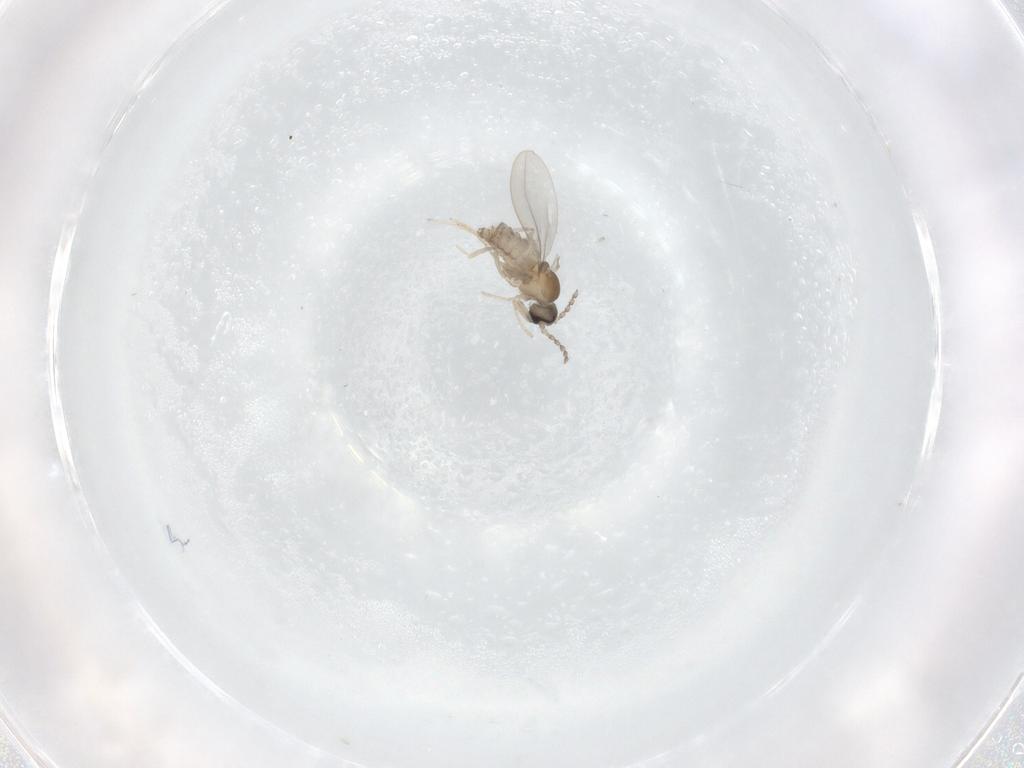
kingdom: Animalia
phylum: Arthropoda
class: Insecta
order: Diptera
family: Cecidomyiidae
